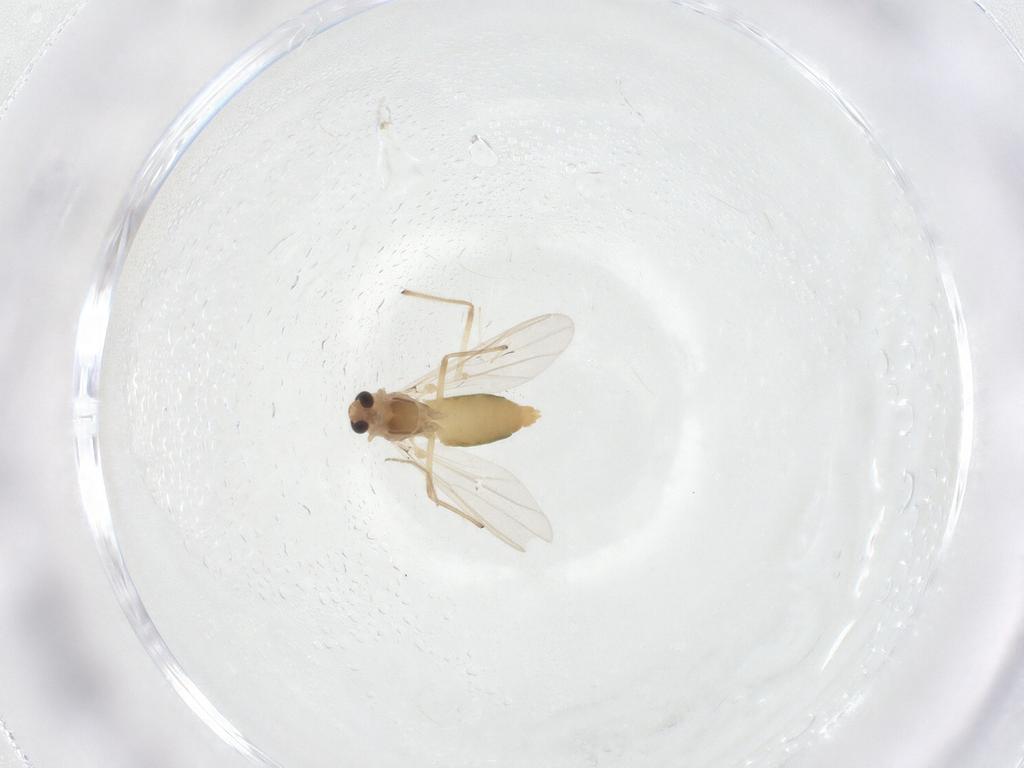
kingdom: Animalia
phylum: Arthropoda
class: Insecta
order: Diptera
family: Chironomidae
